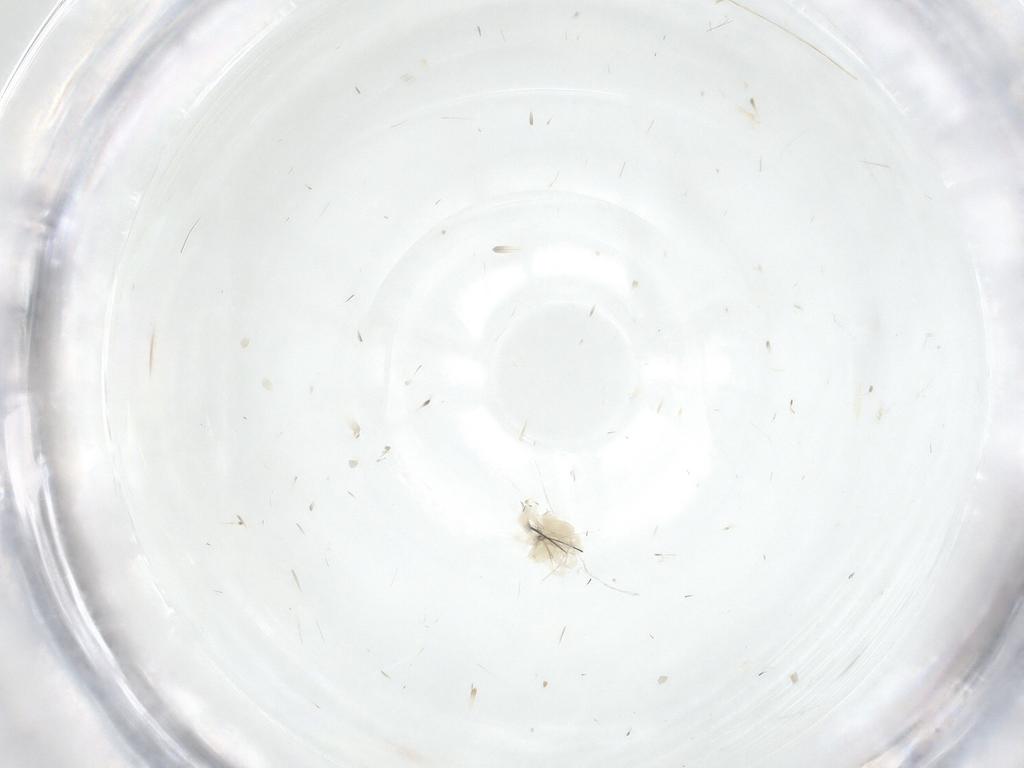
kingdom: Animalia
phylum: Arthropoda
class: Arachnida
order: Trombidiformes
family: Anystidae
